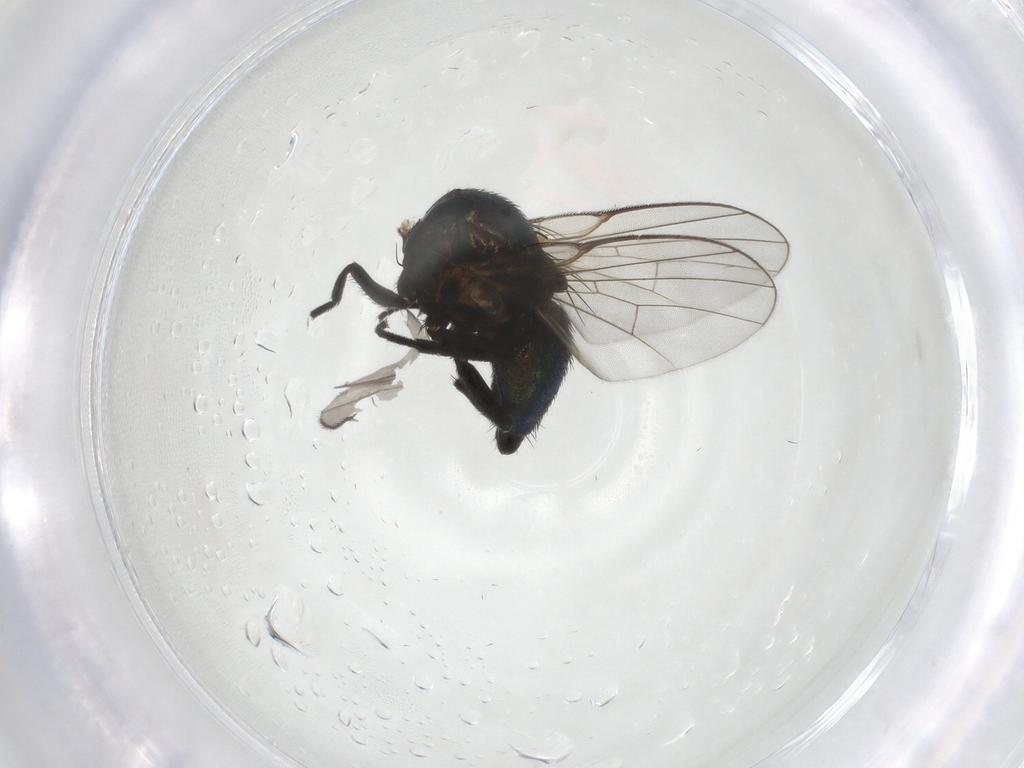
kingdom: Animalia
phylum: Arthropoda
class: Insecta
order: Diptera
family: Agromyzidae
